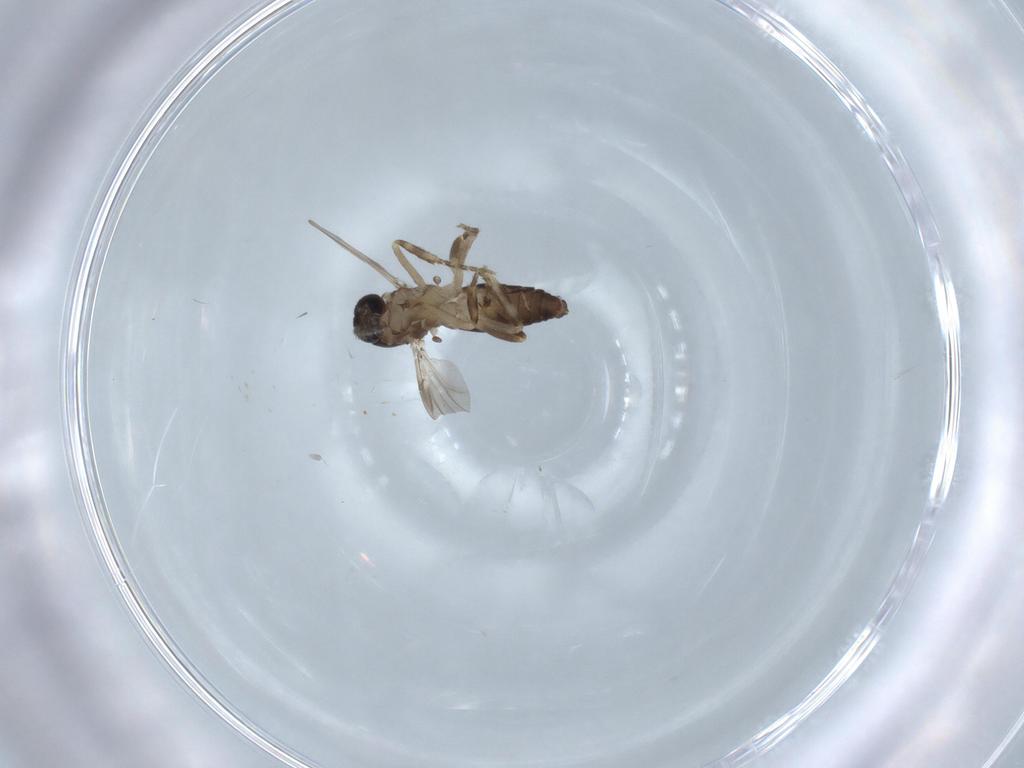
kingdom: Animalia
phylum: Arthropoda
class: Insecta
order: Diptera
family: Ceratopogonidae
